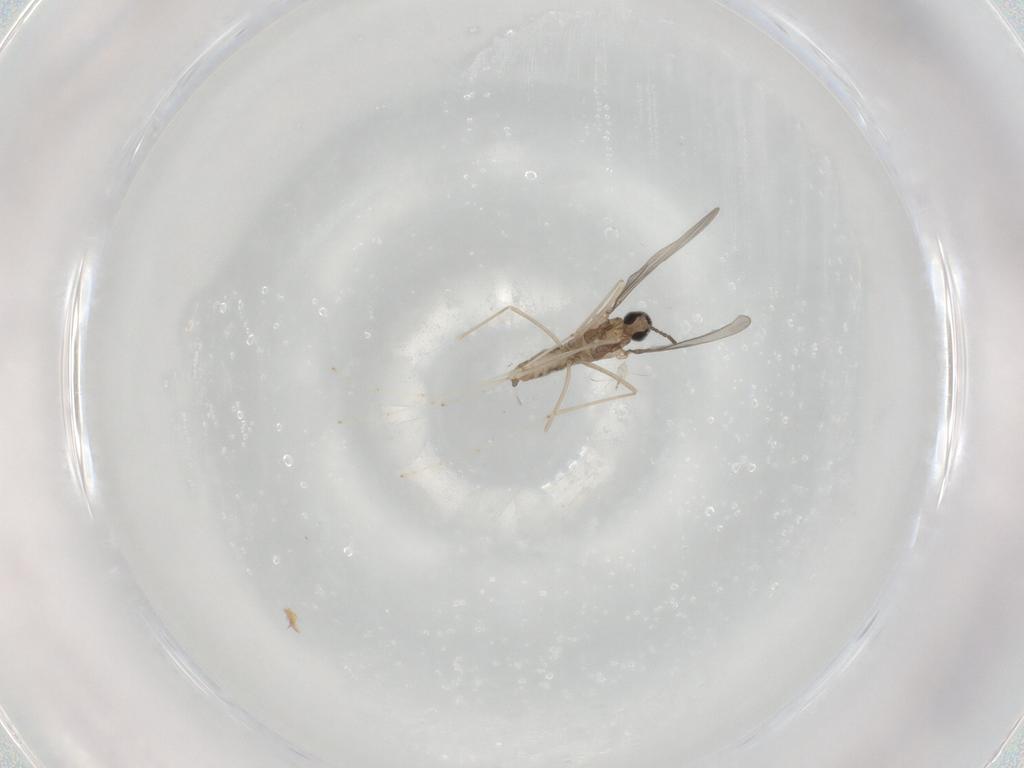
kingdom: Animalia
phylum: Arthropoda
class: Insecta
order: Diptera
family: Cecidomyiidae
